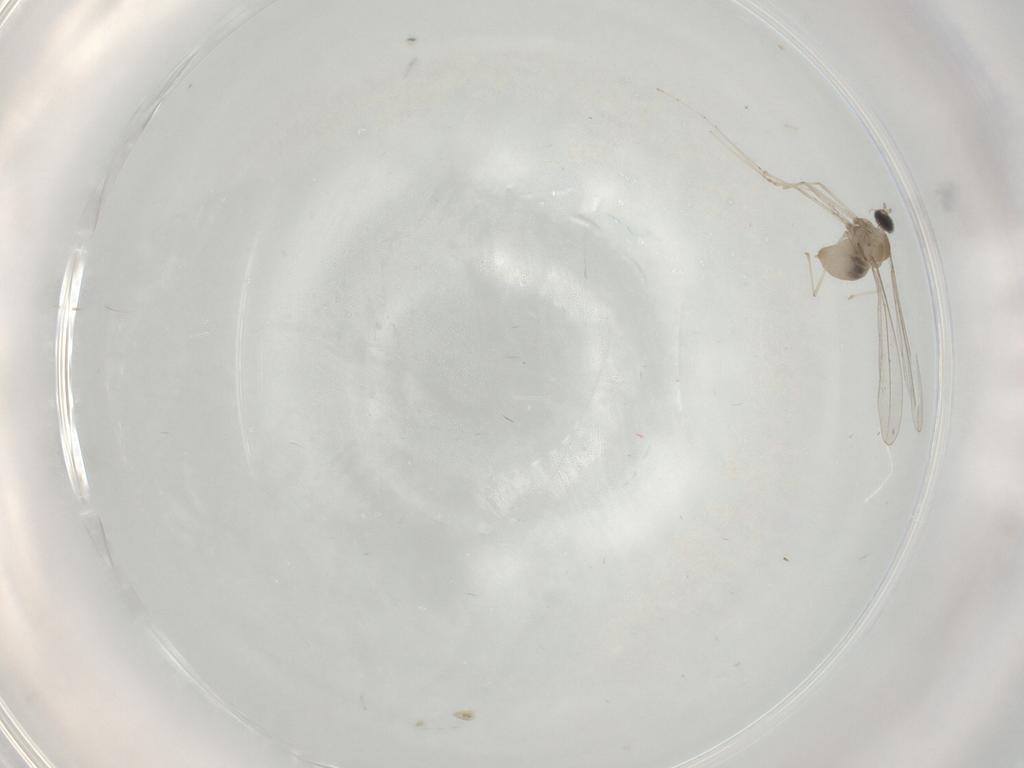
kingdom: Animalia
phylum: Arthropoda
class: Insecta
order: Diptera
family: Cecidomyiidae
